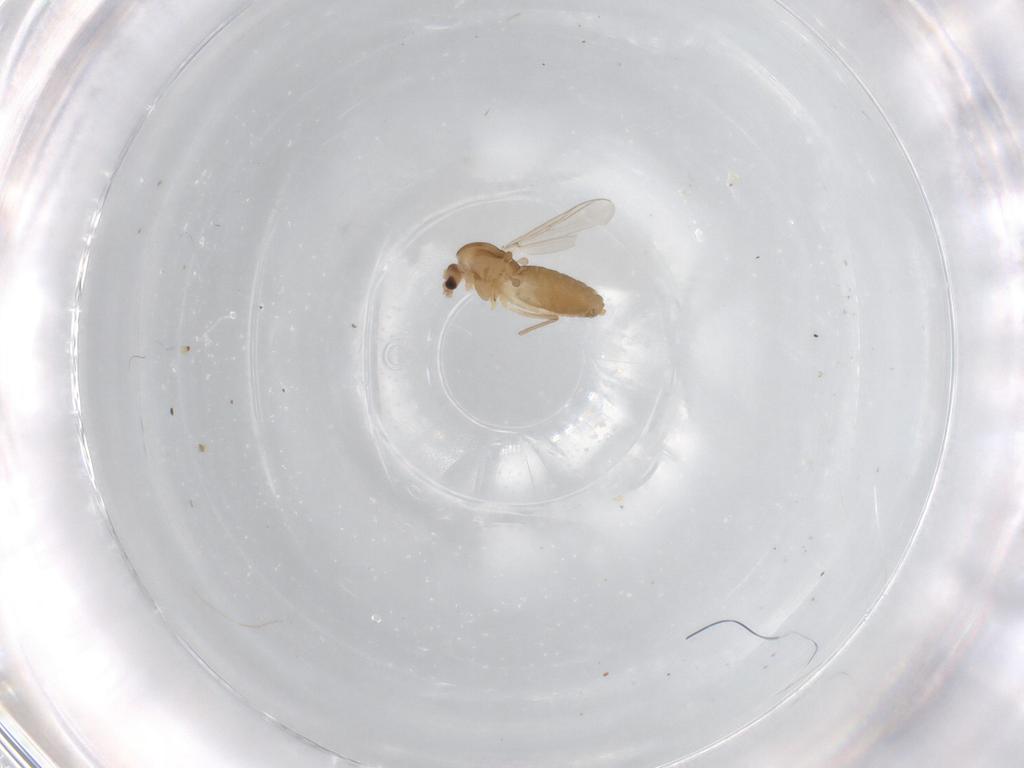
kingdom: Animalia
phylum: Arthropoda
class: Insecta
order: Diptera
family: Chironomidae
